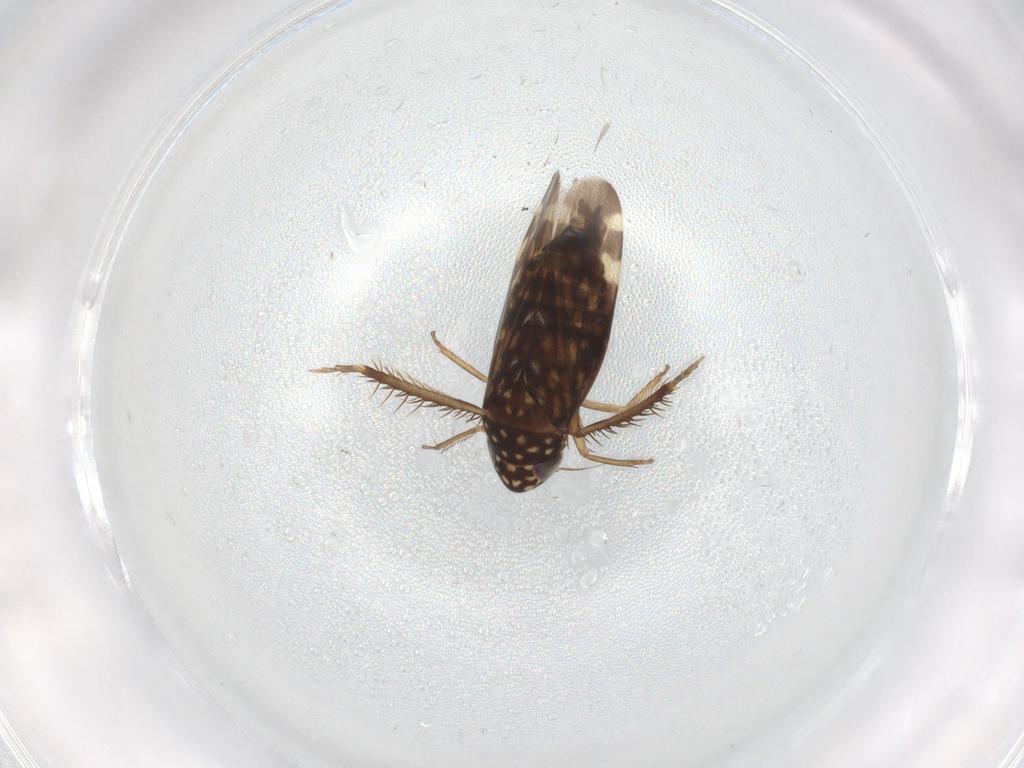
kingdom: Animalia
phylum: Arthropoda
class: Insecta
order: Hemiptera
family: Cicadellidae
